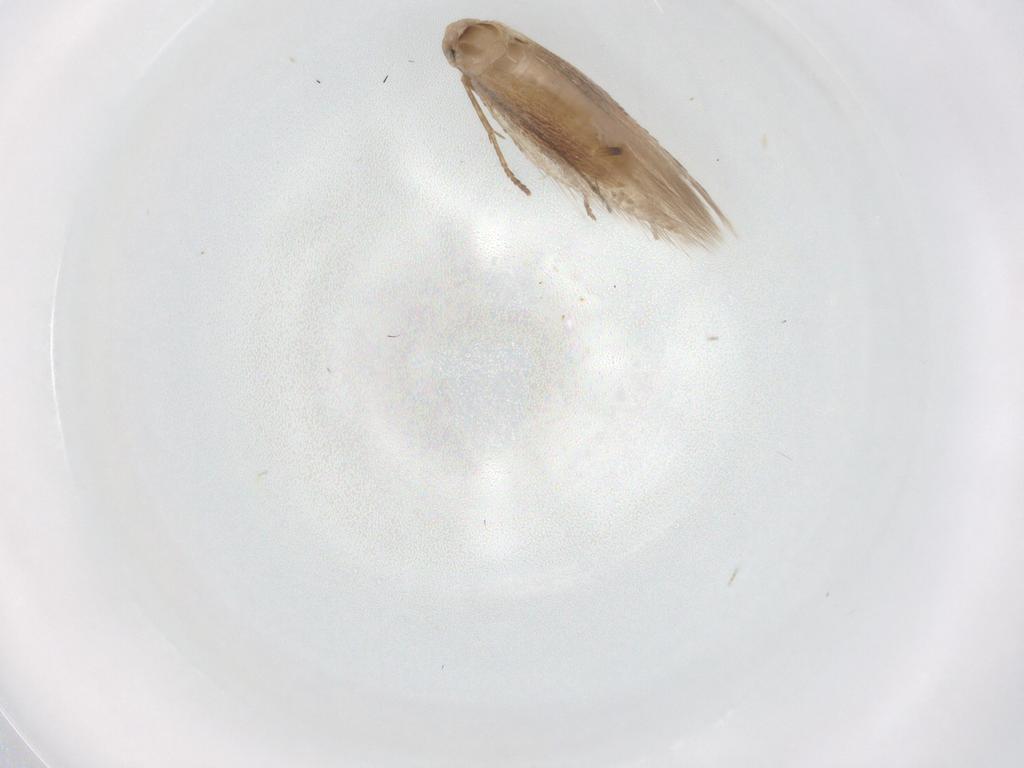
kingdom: Animalia
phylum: Arthropoda
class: Insecta
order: Lepidoptera
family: Bucculatricidae
